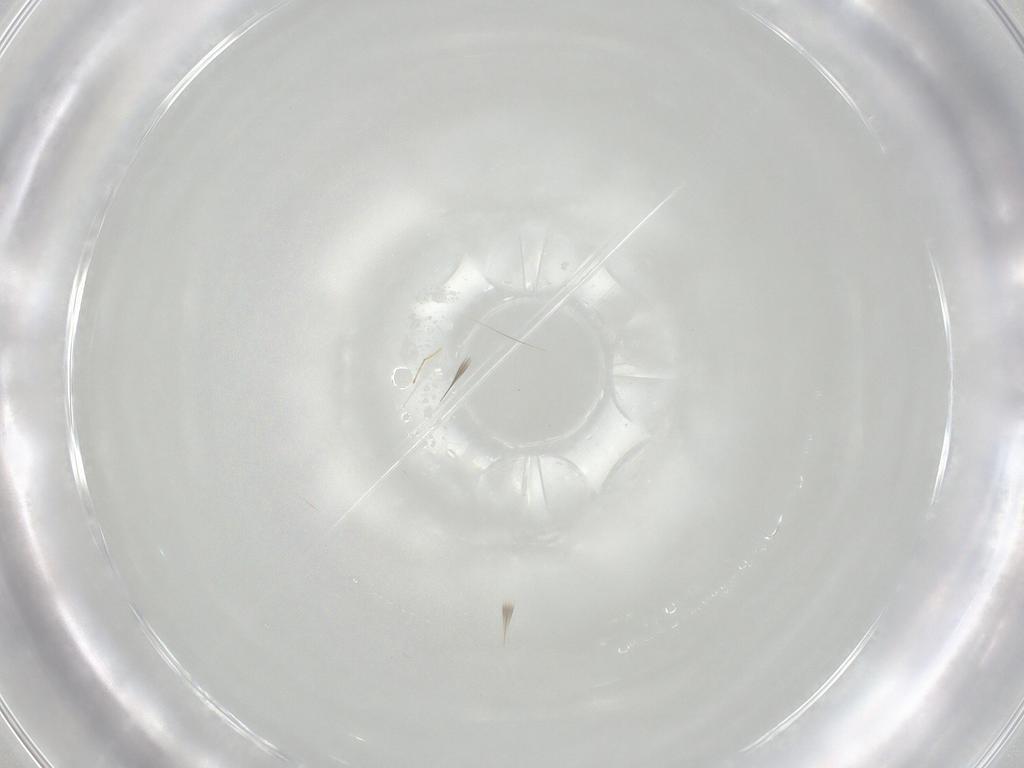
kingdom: Animalia
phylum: Arthropoda
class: Insecta
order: Hymenoptera
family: Mymaridae
